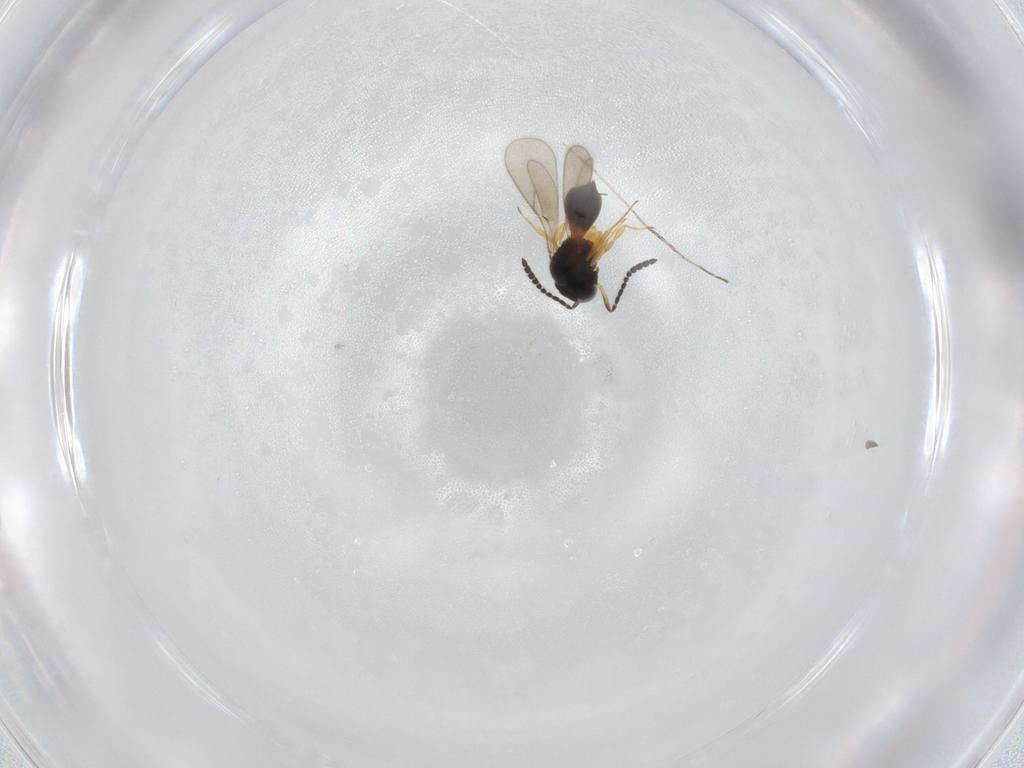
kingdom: Animalia
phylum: Arthropoda
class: Insecta
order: Hymenoptera
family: Scelionidae
